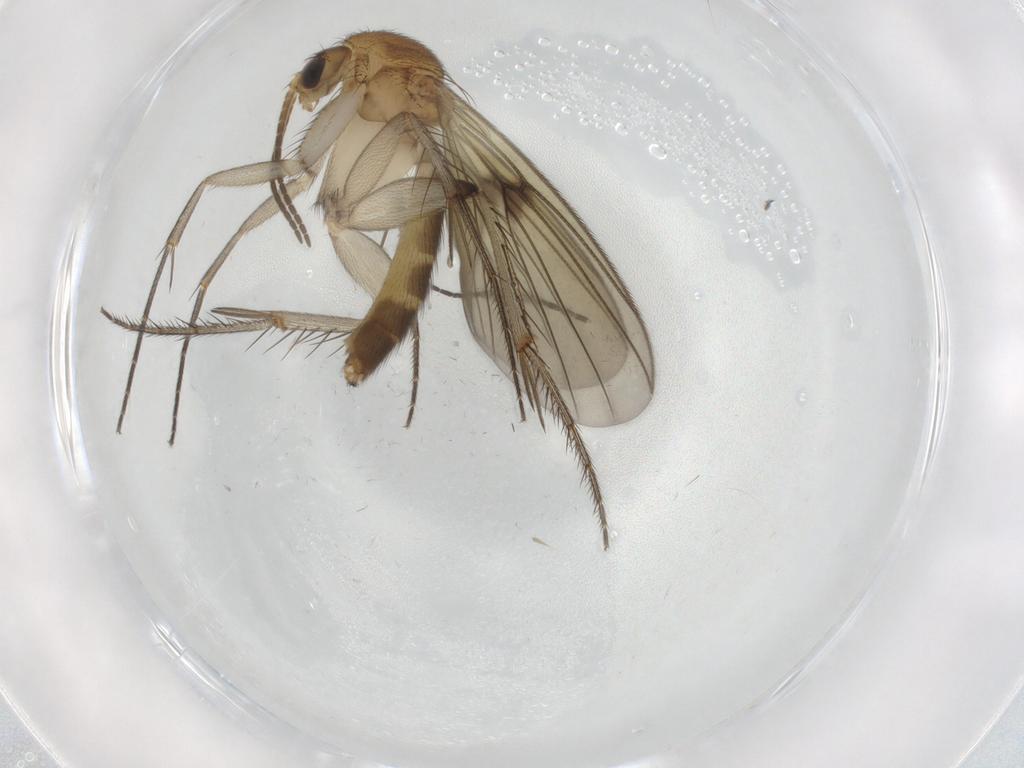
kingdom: Animalia
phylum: Arthropoda
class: Insecta
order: Diptera
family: Sciaridae
